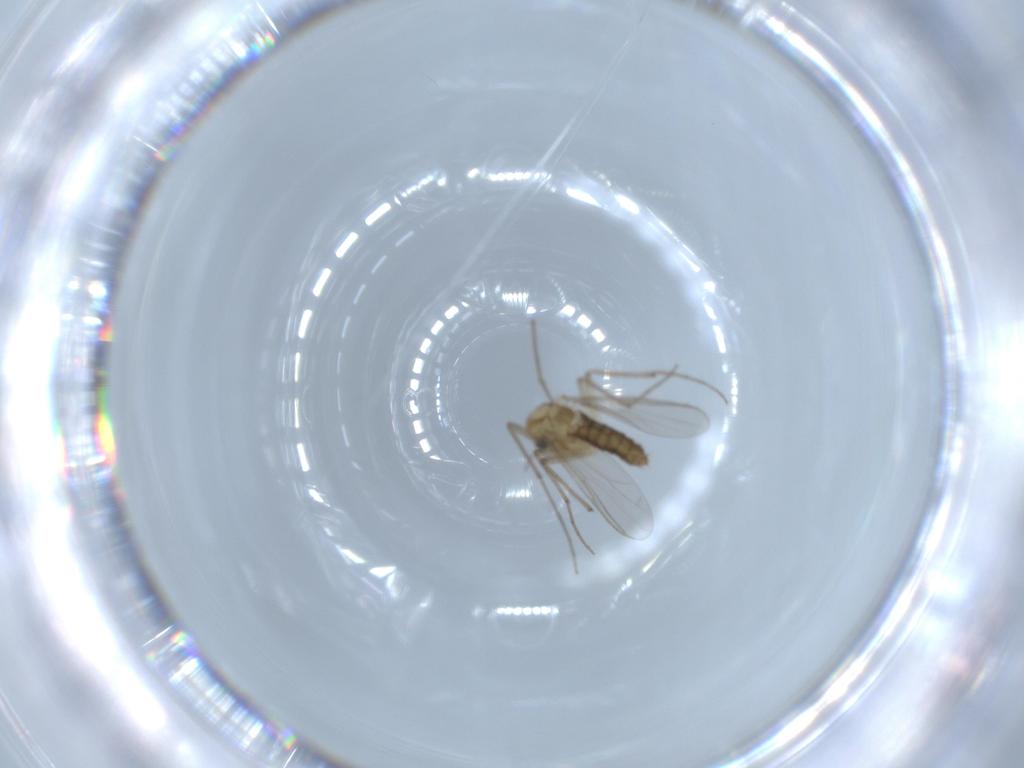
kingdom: Animalia
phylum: Arthropoda
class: Insecta
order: Diptera
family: Chironomidae
